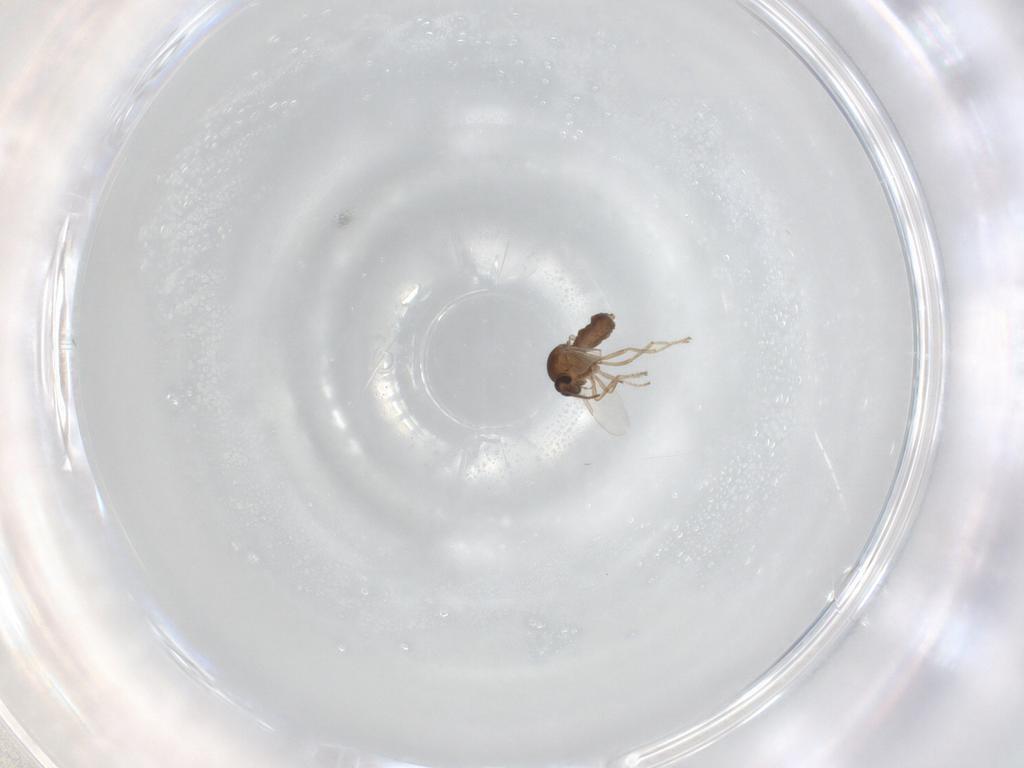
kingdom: Animalia
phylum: Arthropoda
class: Insecta
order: Diptera
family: Ceratopogonidae
